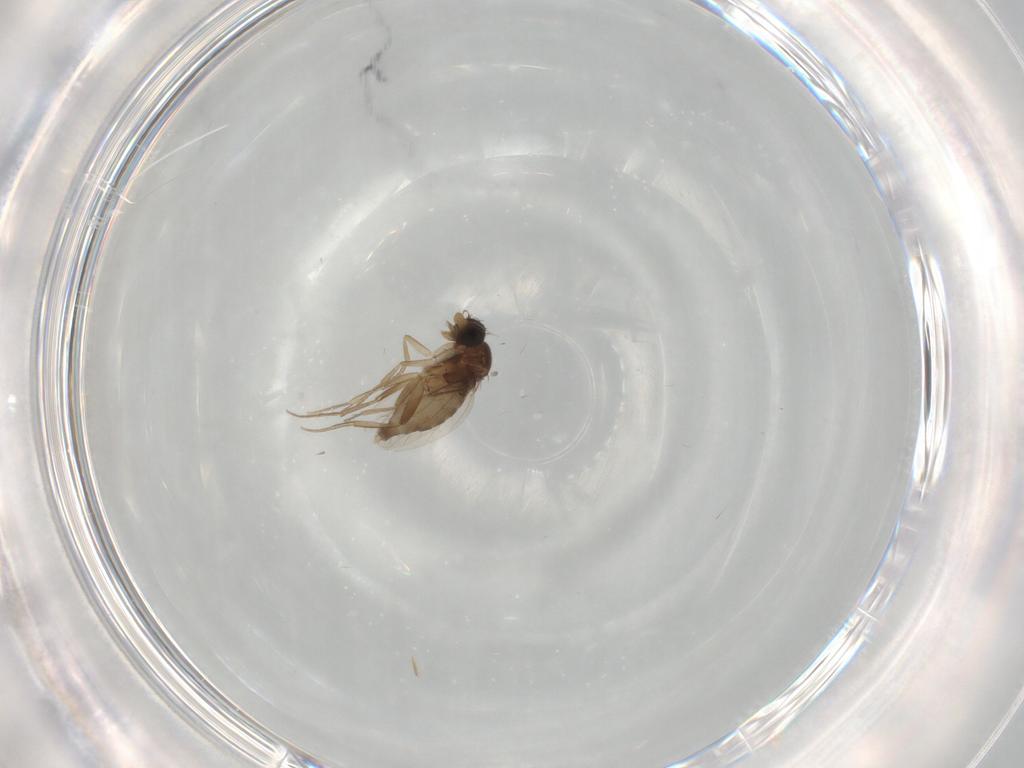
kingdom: Animalia
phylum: Arthropoda
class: Insecta
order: Diptera
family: Phoridae
